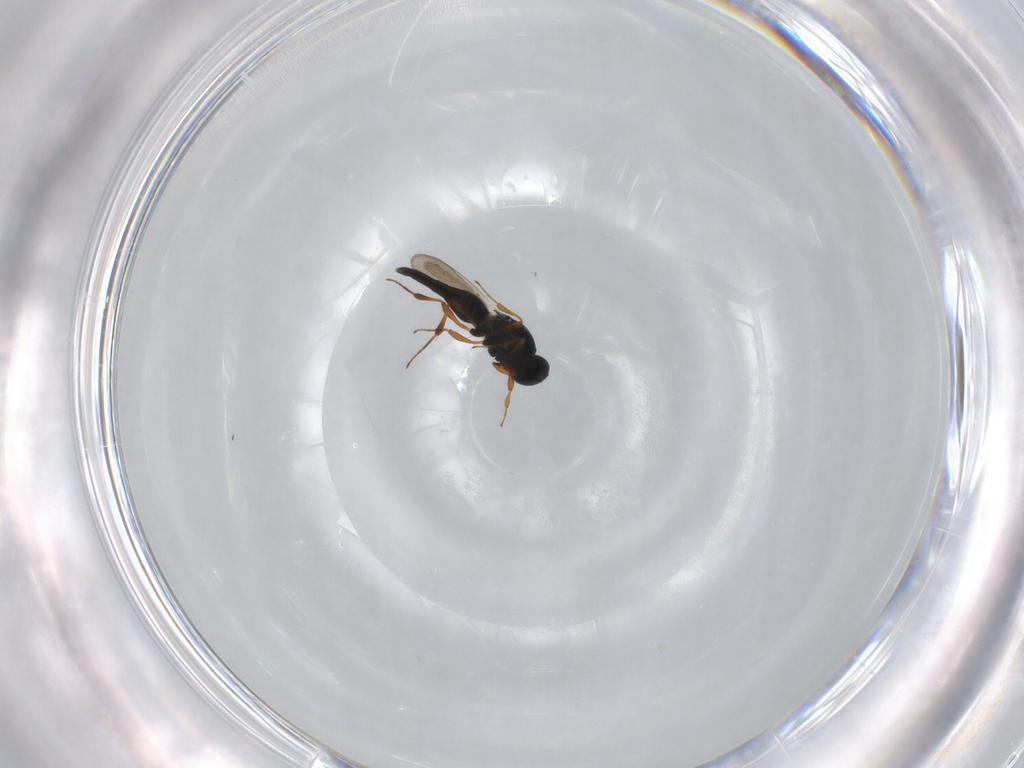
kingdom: Animalia
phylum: Arthropoda
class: Insecta
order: Hymenoptera
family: Platygastridae
